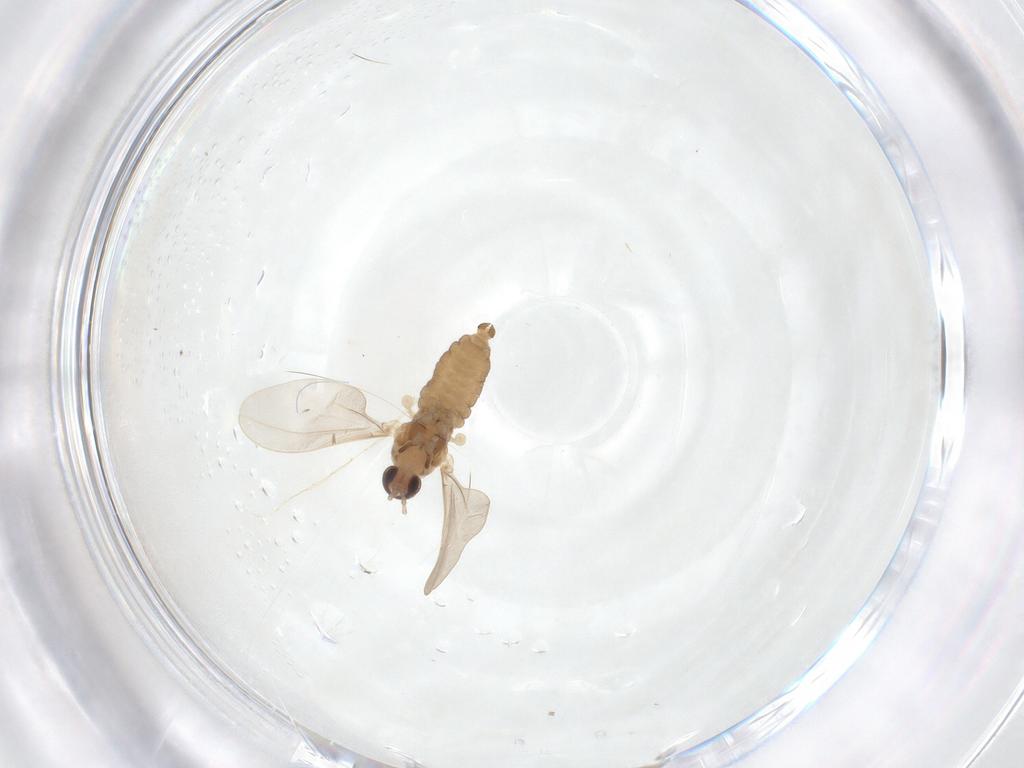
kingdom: Animalia
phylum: Arthropoda
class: Insecta
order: Diptera
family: Cecidomyiidae
